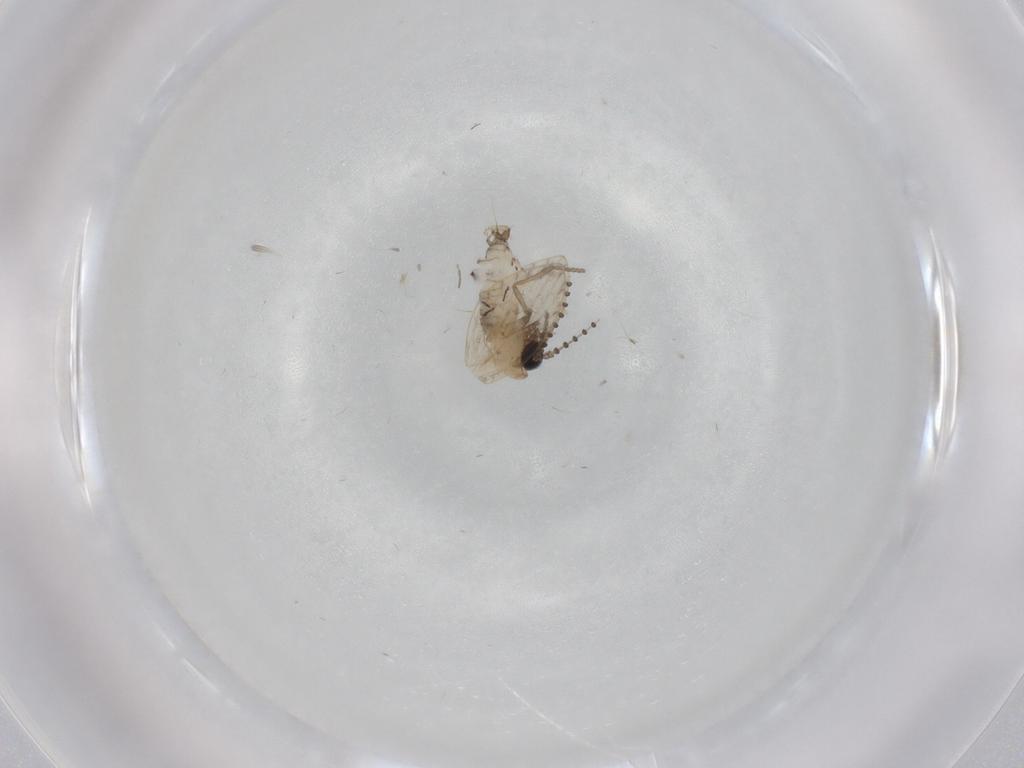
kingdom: Animalia
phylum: Arthropoda
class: Insecta
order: Diptera
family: Psychodidae
